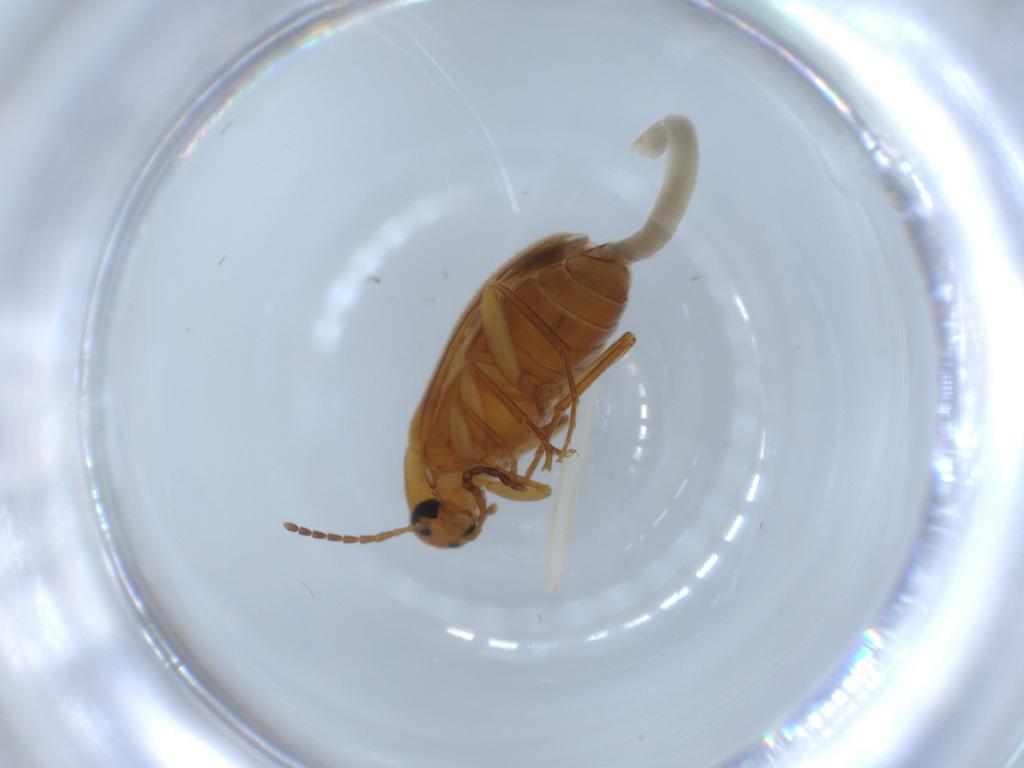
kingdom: Animalia
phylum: Arthropoda
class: Insecta
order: Coleoptera
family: Scraptiidae
